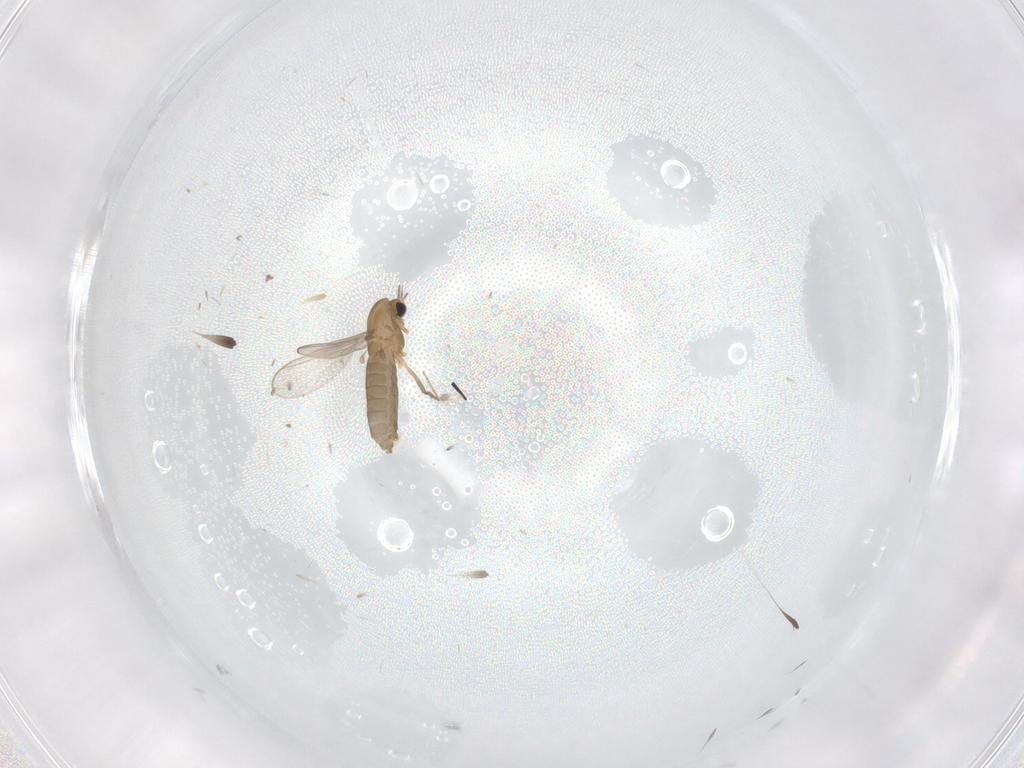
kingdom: Animalia
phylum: Arthropoda
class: Insecta
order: Diptera
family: Chironomidae
